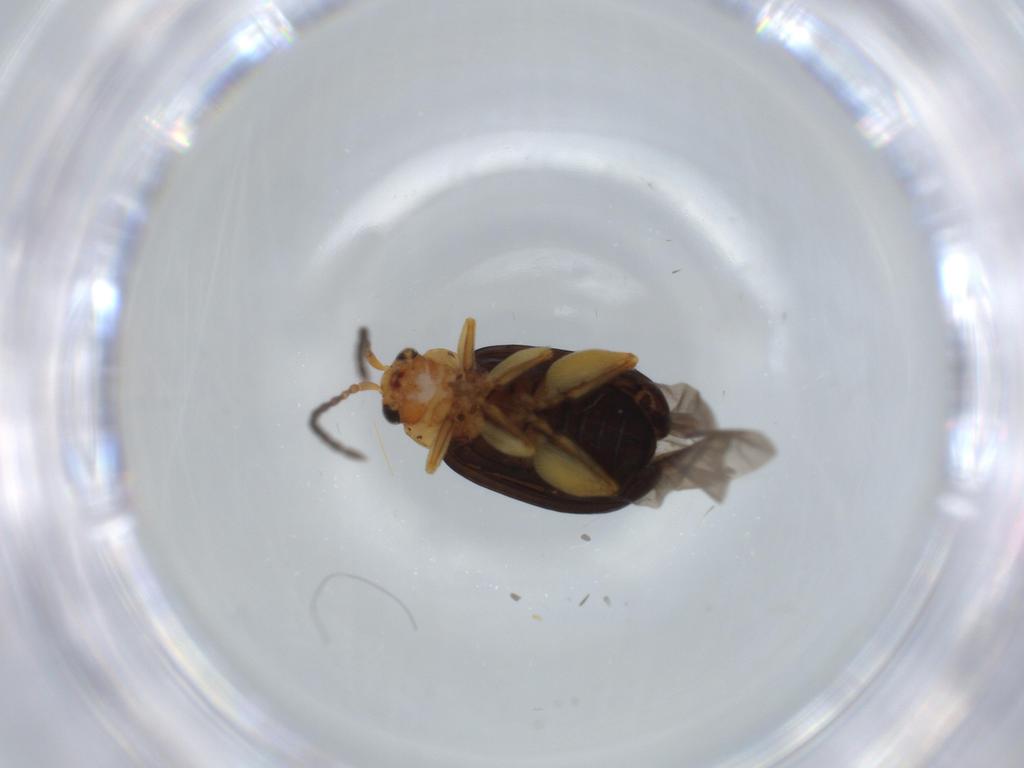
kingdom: Animalia
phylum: Arthropoda
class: Insecta
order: Coleoptera
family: Chrysomelidae
